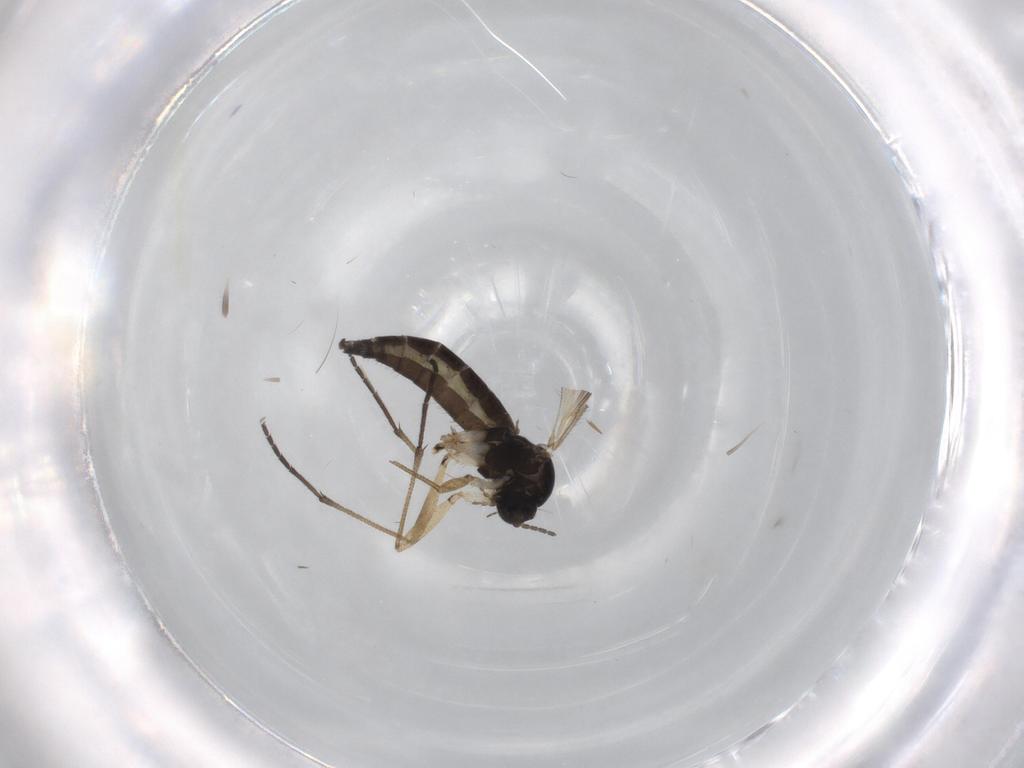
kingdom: Animalia
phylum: Arthropoda
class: Insecta
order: Diptera
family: Sciaridae
